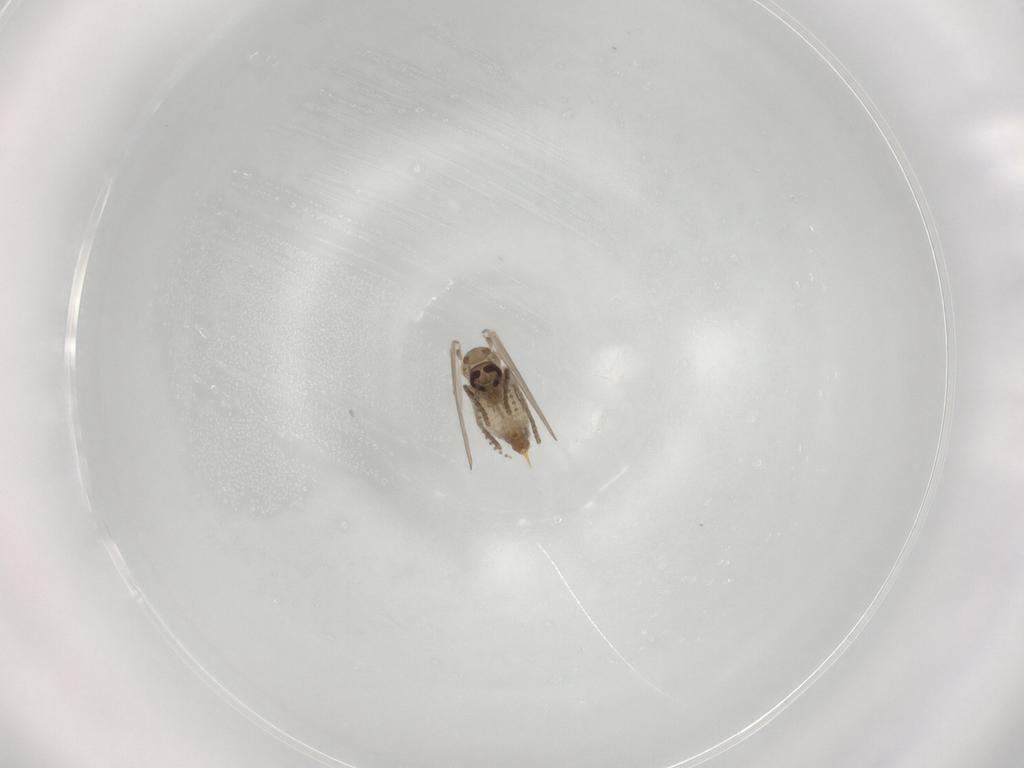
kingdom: Animalia
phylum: Arthropoda
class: Insecta
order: Diptera
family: Psychodidae
